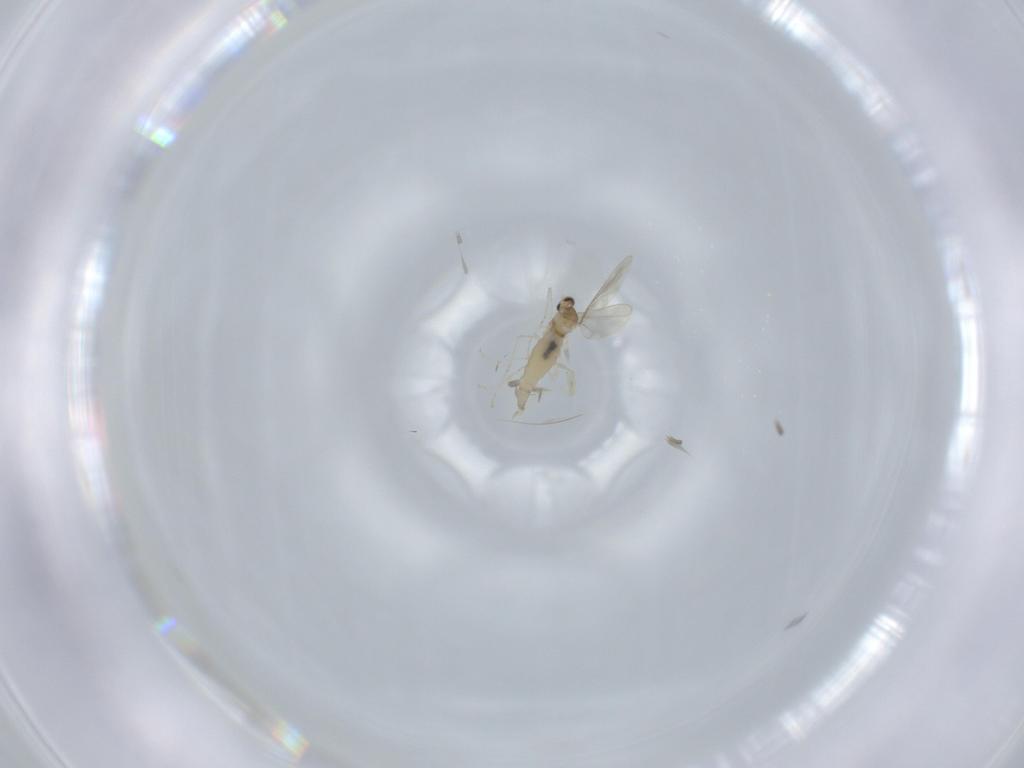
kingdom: Animalia
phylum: Arthropoda
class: Insecta
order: Diptera
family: Cecidomyiidae
